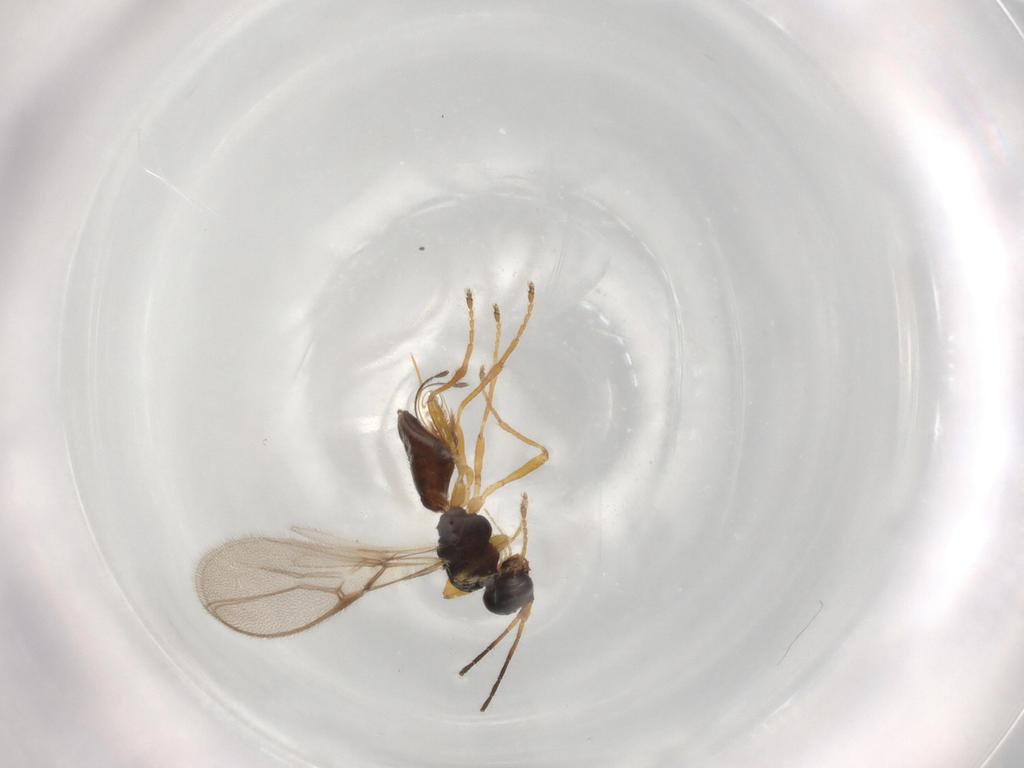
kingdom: Animalia
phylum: Arthropoda
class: Insecta
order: Hymenoptera
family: Braconidae
